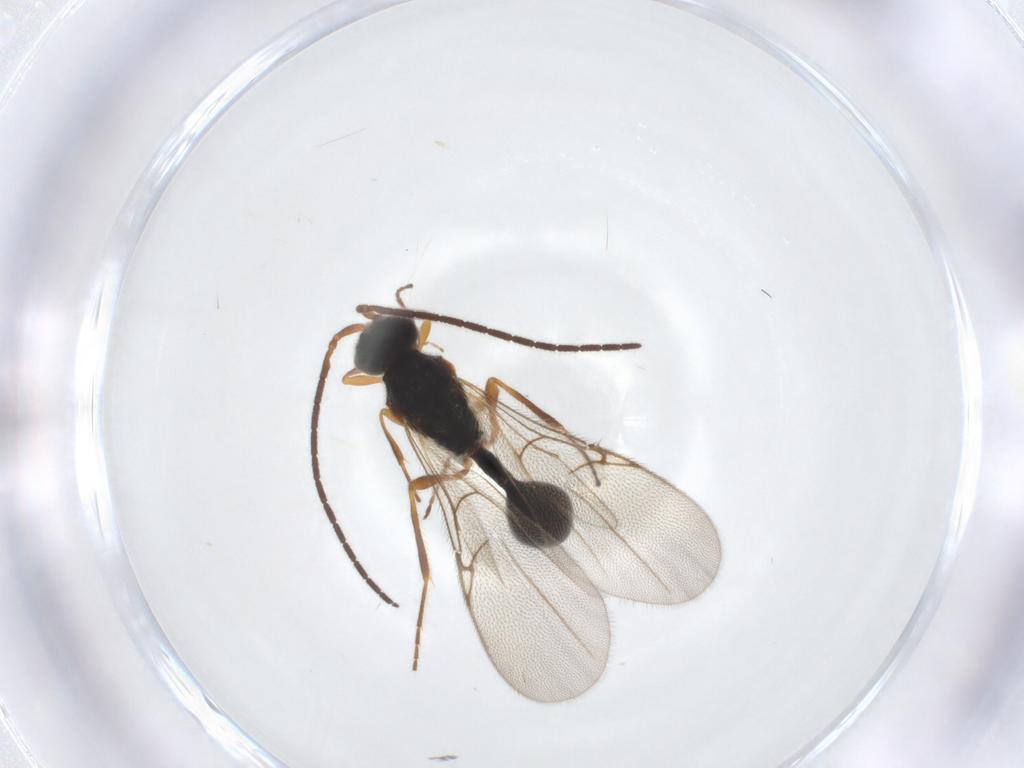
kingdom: Animalia
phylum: Arthropoda
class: Insecta
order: Hymenoptera
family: Diapriidae
